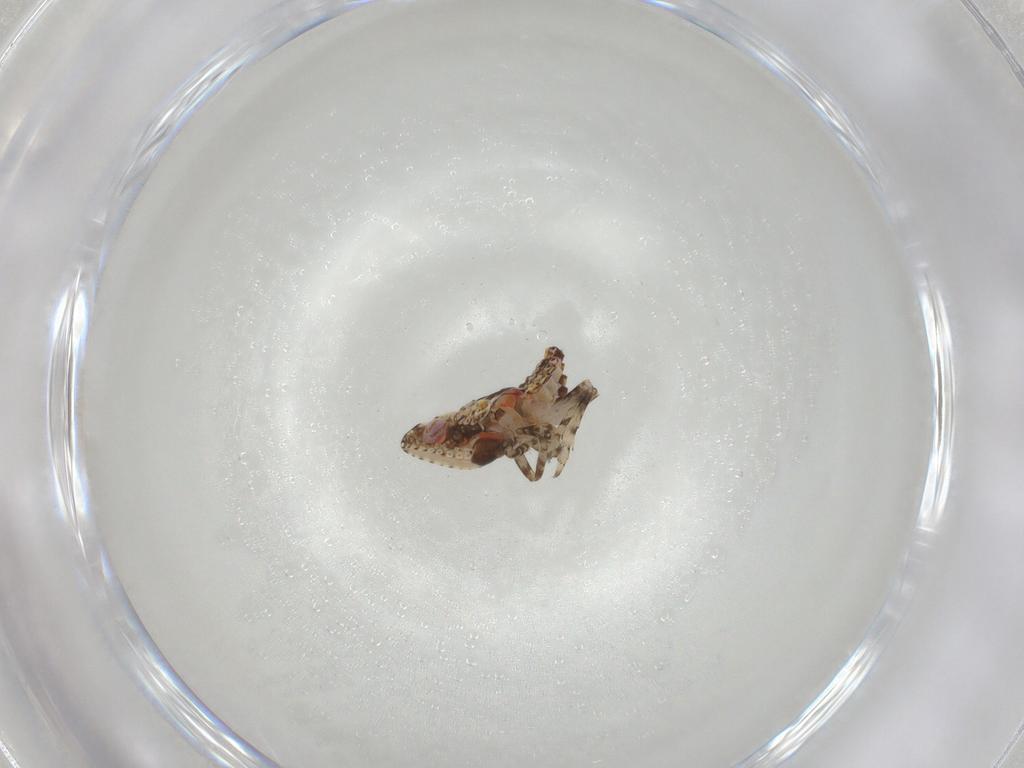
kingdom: Animalia
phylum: Arthropoda
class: Insecta
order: Hemiptera
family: Tropiduchidae
